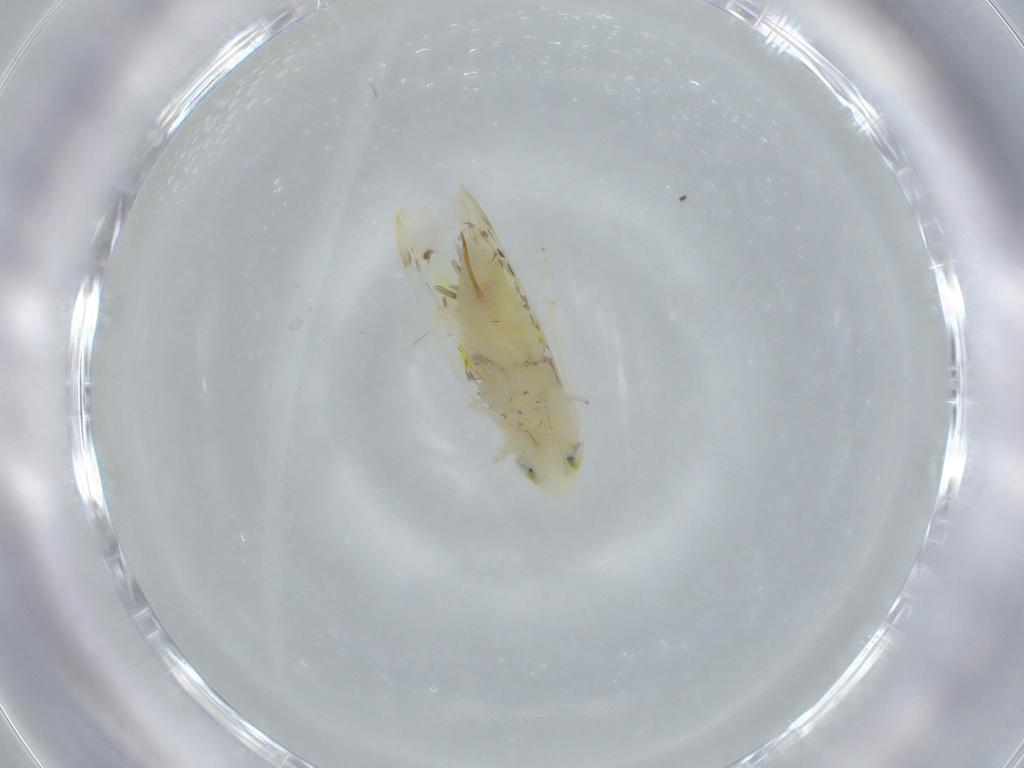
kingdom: Animalia
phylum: Arthropoda
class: Insecta
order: Hemiptera
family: Cicadellidae
